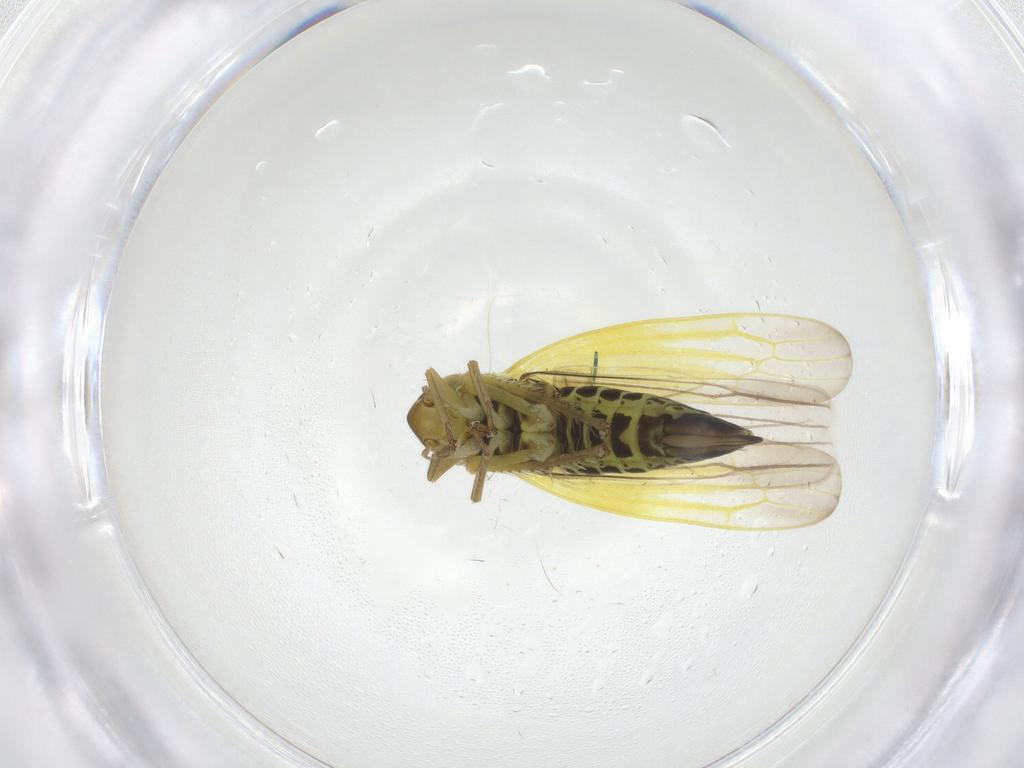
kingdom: Animalia
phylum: Arthropoda
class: Insecta
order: Hemiptera
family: Cicadellidae
